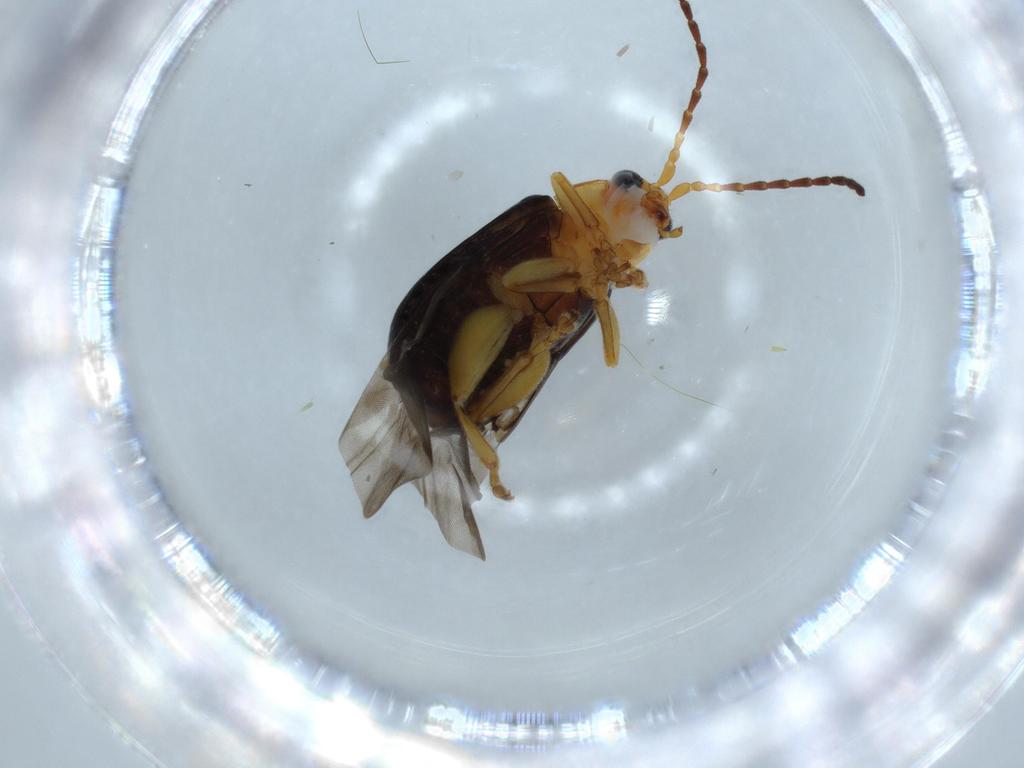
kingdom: Animalia
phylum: Arthropoda
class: Insecta
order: Coleoptera
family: Chrysomelidae
